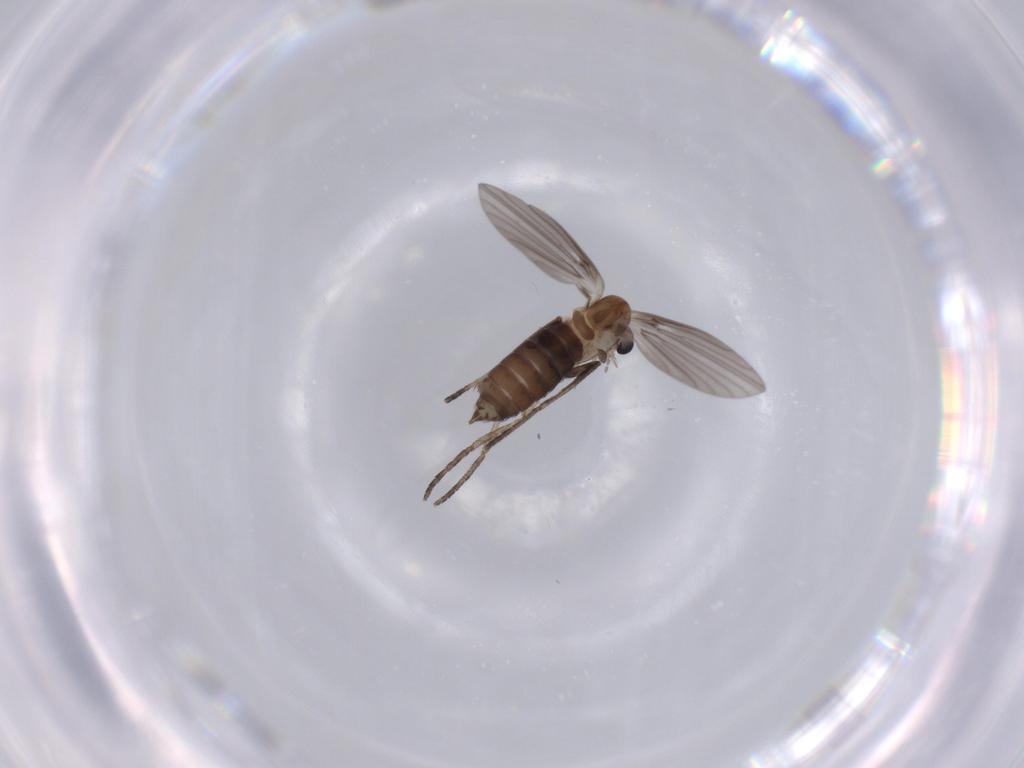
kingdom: Animalia
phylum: Arthropoda
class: Insecta
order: Diptera
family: Psychodidae
